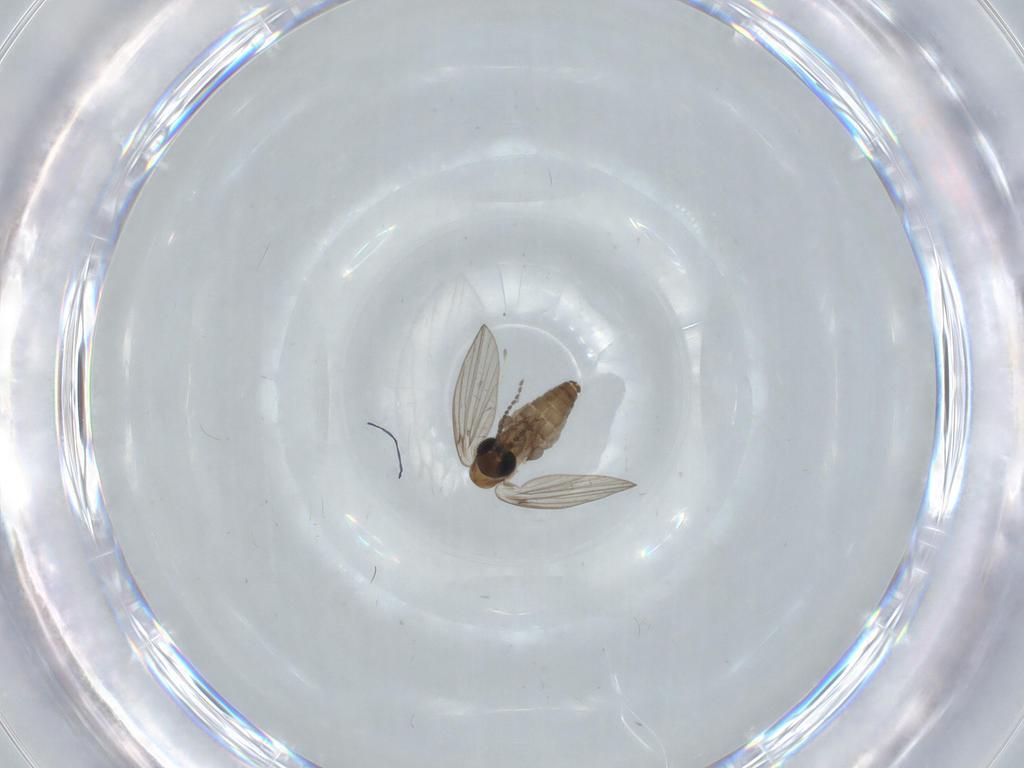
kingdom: Animalia
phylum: Arthropoda
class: Insecta
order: Diptera
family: Psychodidae
